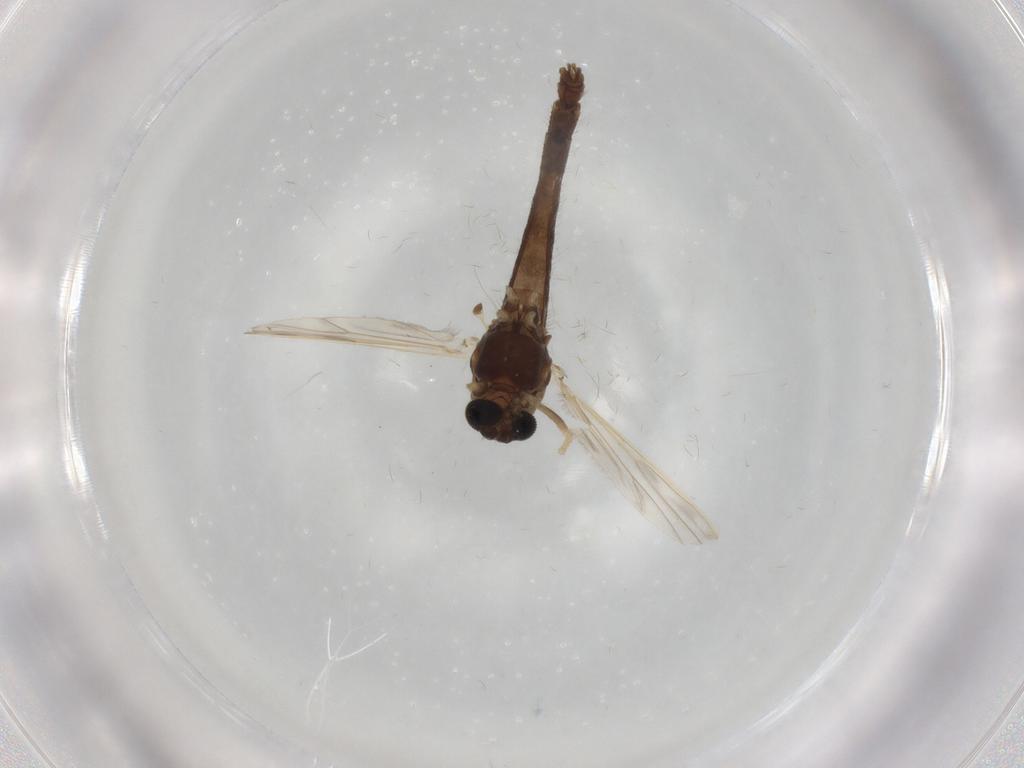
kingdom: Animalia
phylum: Arthropoda
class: Insecta
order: Diptera
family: Chironomidae
